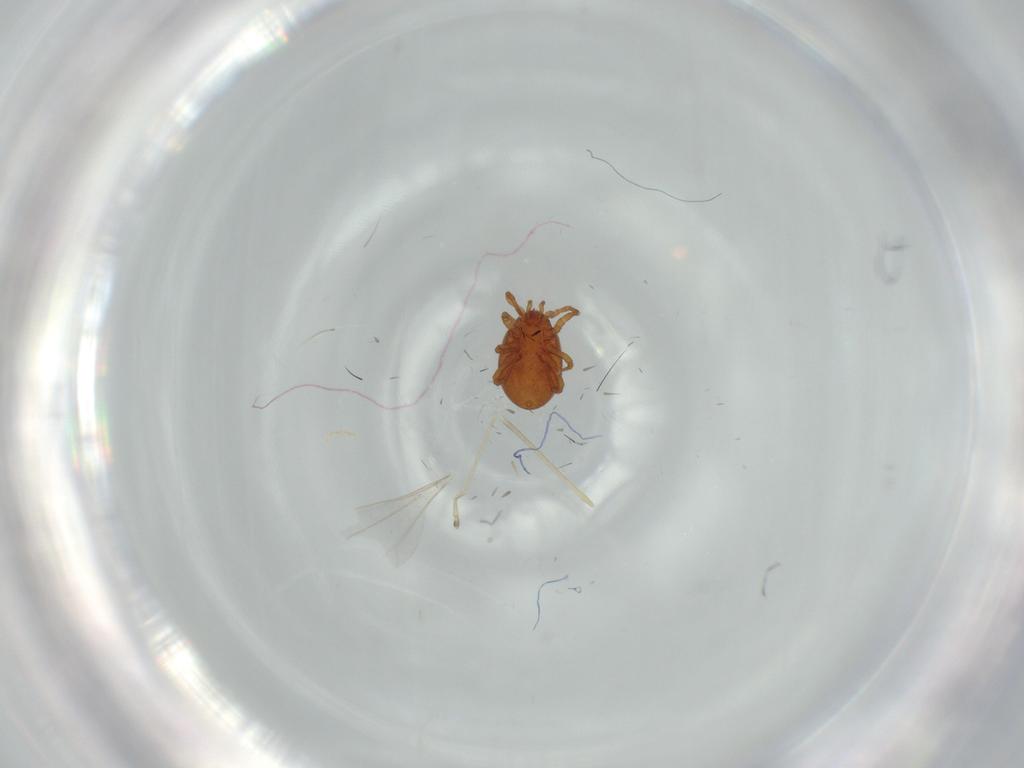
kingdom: Animalia
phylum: Arthropoda
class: Arachnida
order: Mesostigmata
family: Parasitidae
